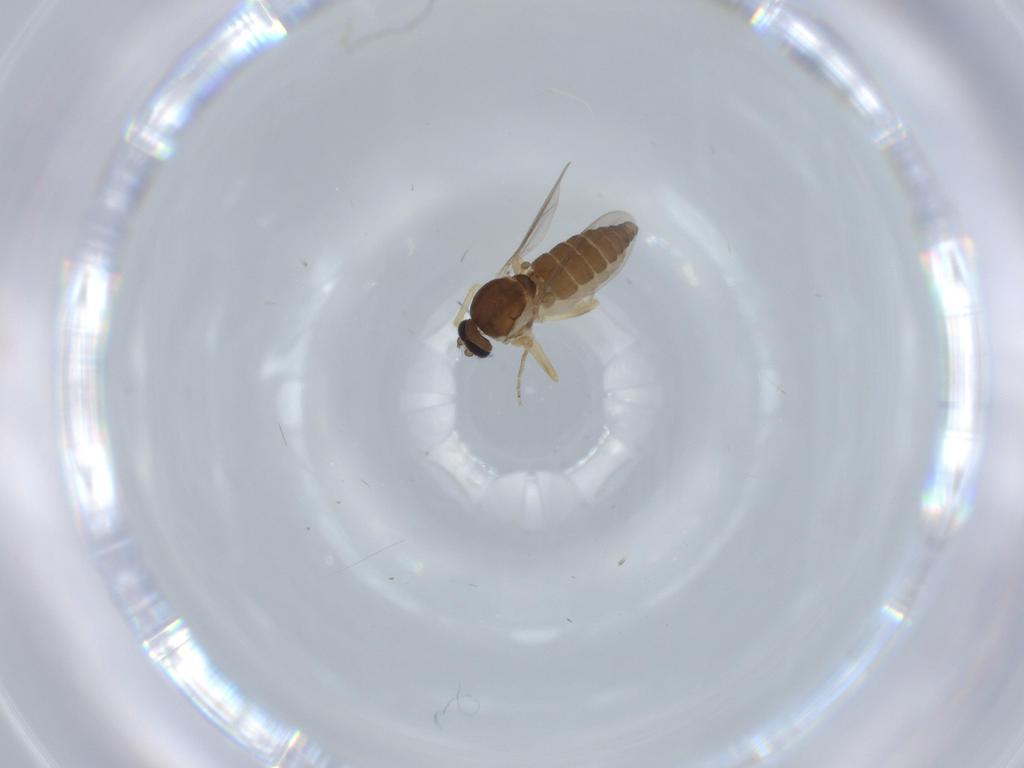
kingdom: Animalia
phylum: Arthropoda
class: Insecta
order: Diptera
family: Ceratopogonidae
